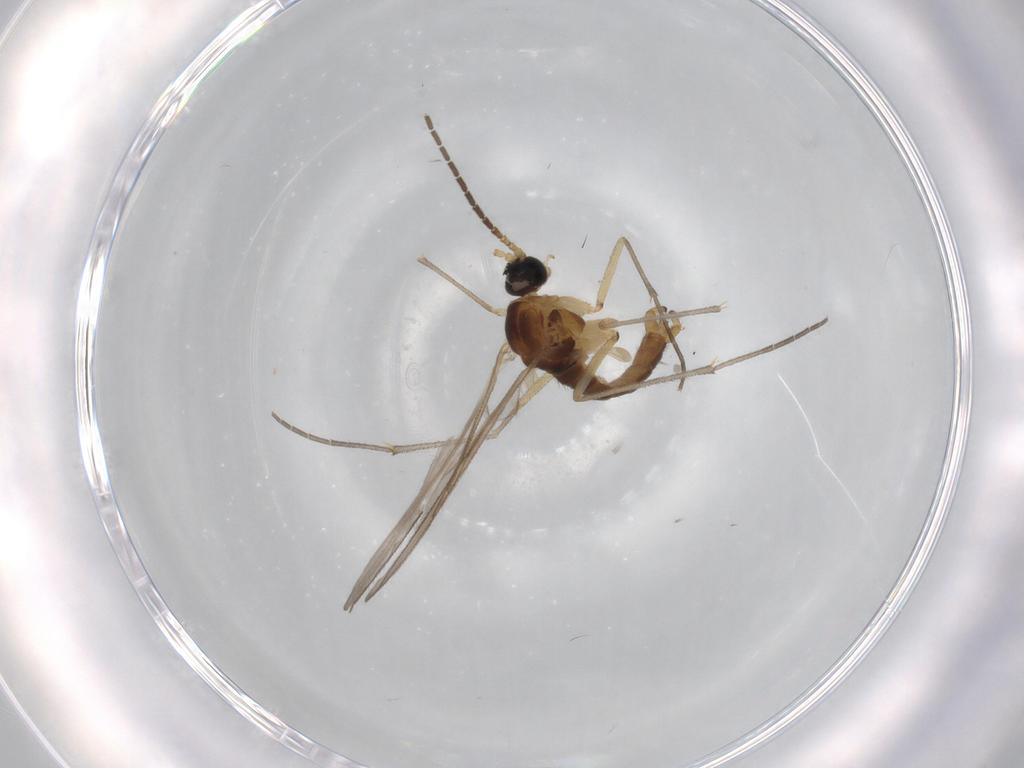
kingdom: Animalia
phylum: Arthropoda
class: Insecta
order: Diptera
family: Sciaridae
